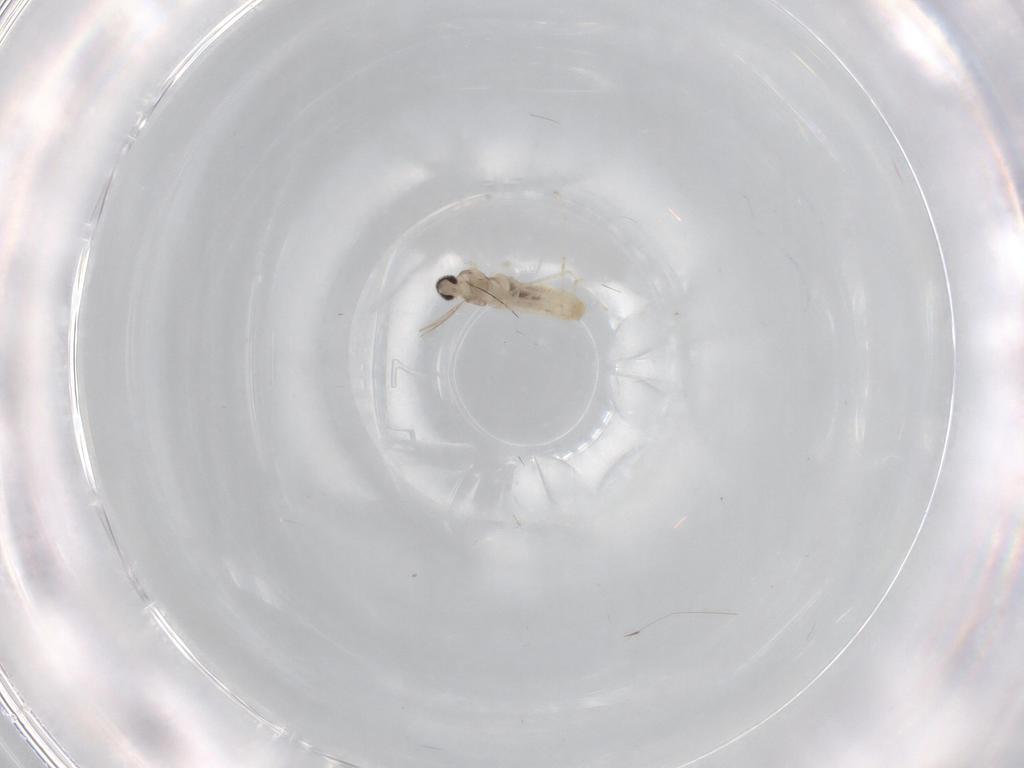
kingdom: Animalia
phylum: Arthropoda
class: Insecta
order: Diptera
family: Cecidomyiidae
